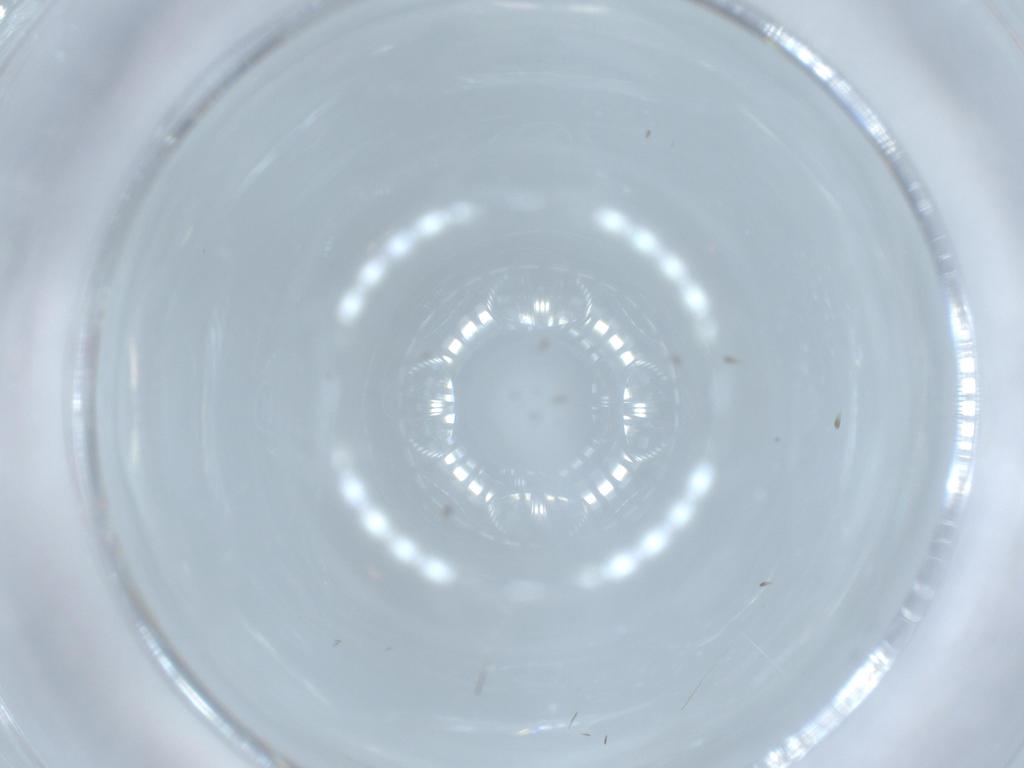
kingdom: Animalia
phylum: Arthropoda
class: Insecta
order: Diptera
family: Cecidomyiidae
